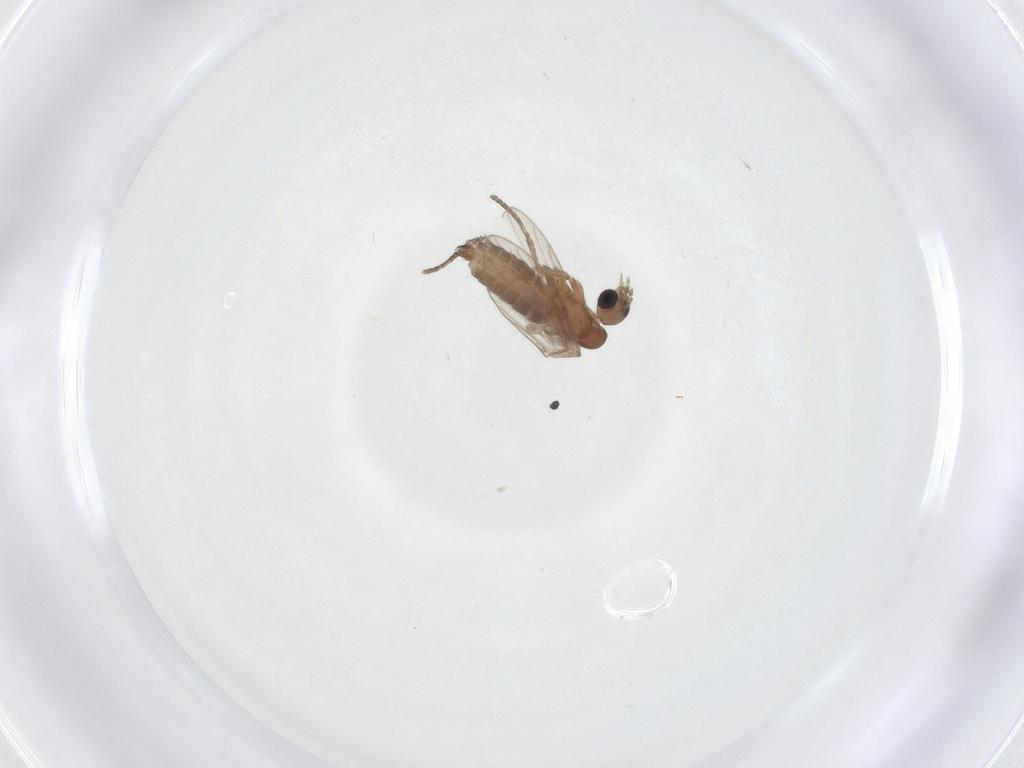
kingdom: Animalia
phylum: Arthropoda
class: Insecta
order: Diptera
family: Psychodidae
